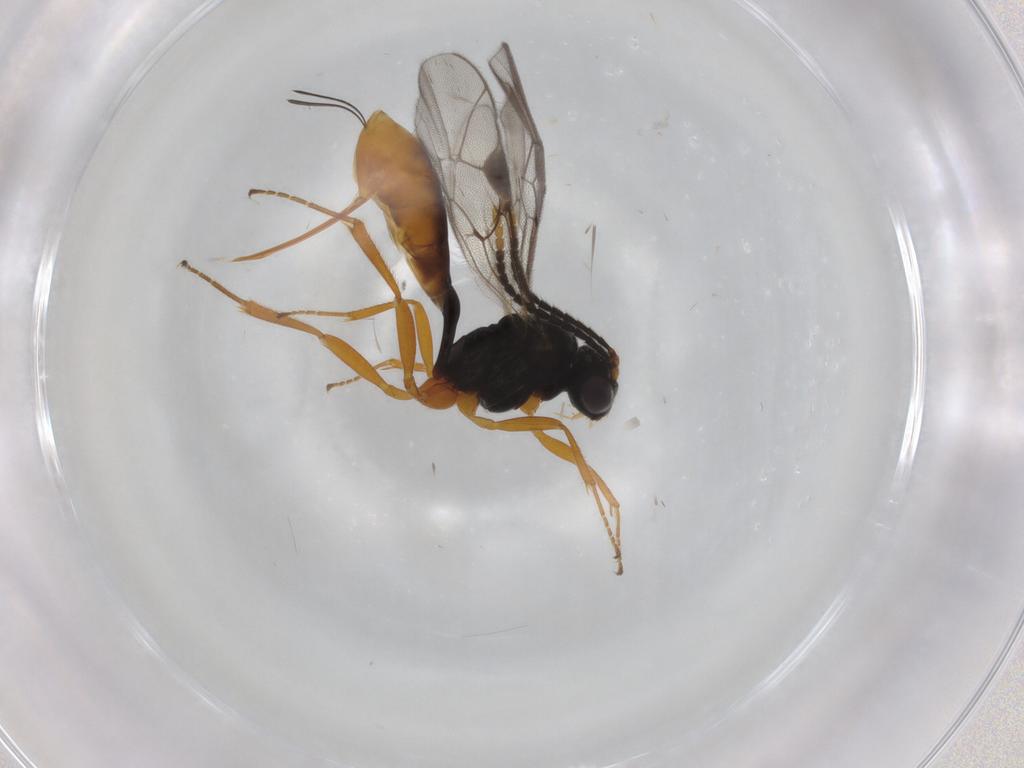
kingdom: Animalia
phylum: Arthropoda
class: Insecta
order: Hymenoptera
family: Ichneumonidae
